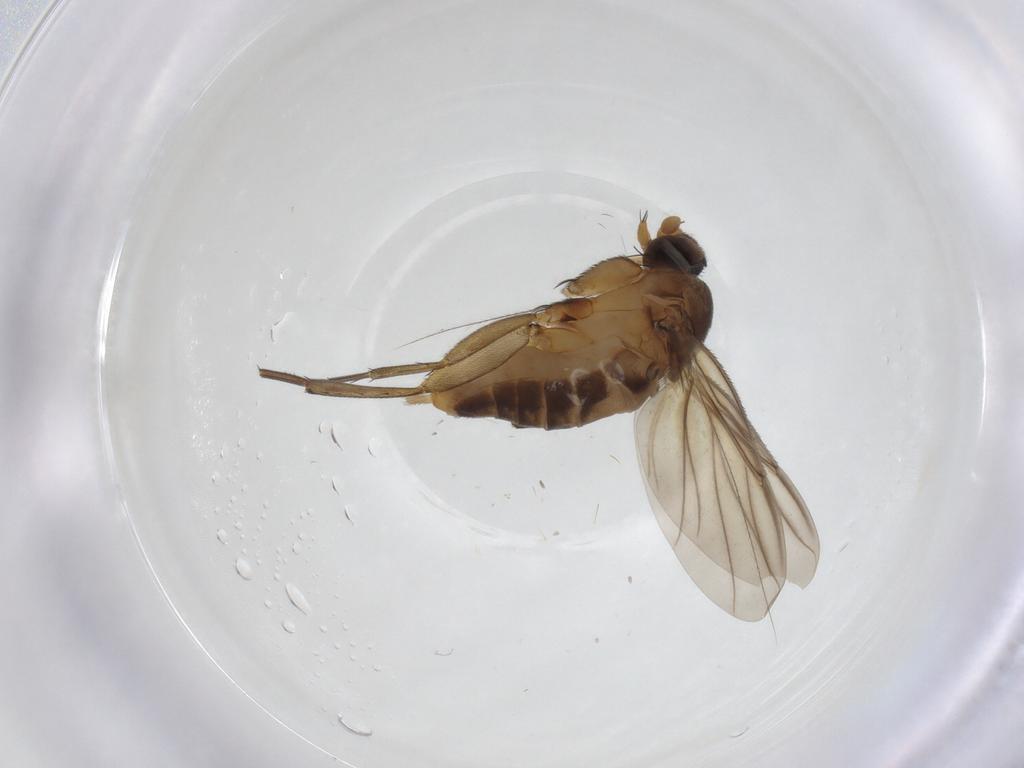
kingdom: Animalia
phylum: Arthropoda
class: Insecta
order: Diptera
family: Phoridae
